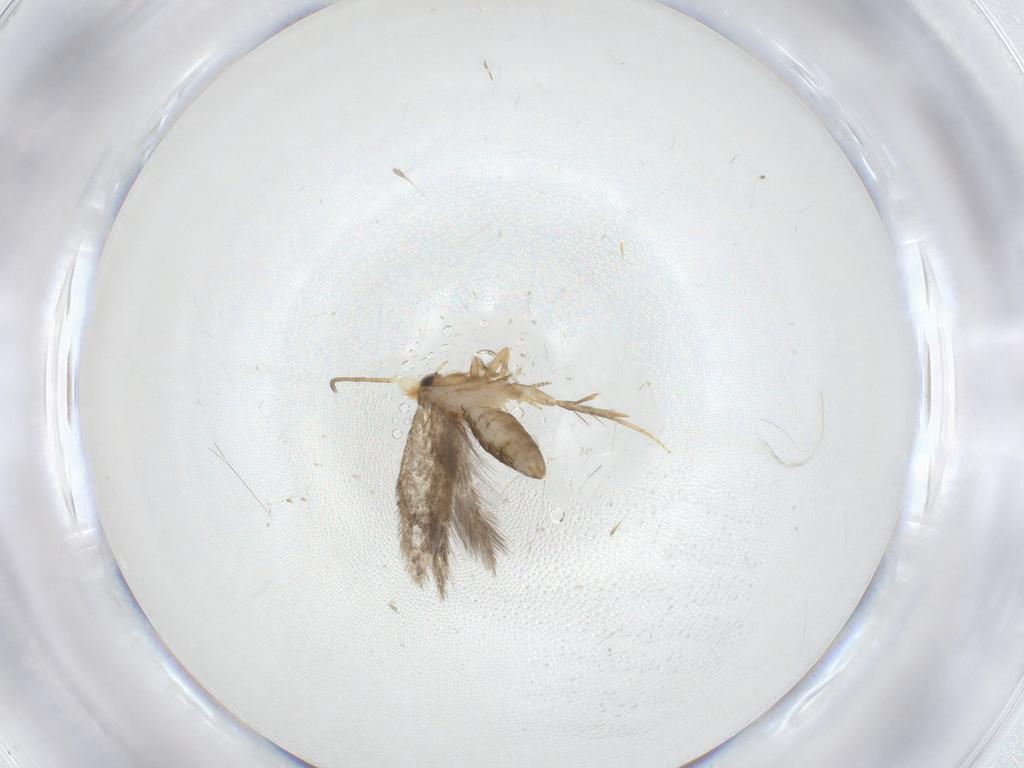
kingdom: Animalia
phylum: Arthropoda
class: Insecta
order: Lepidoptera
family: Nepticulidae
